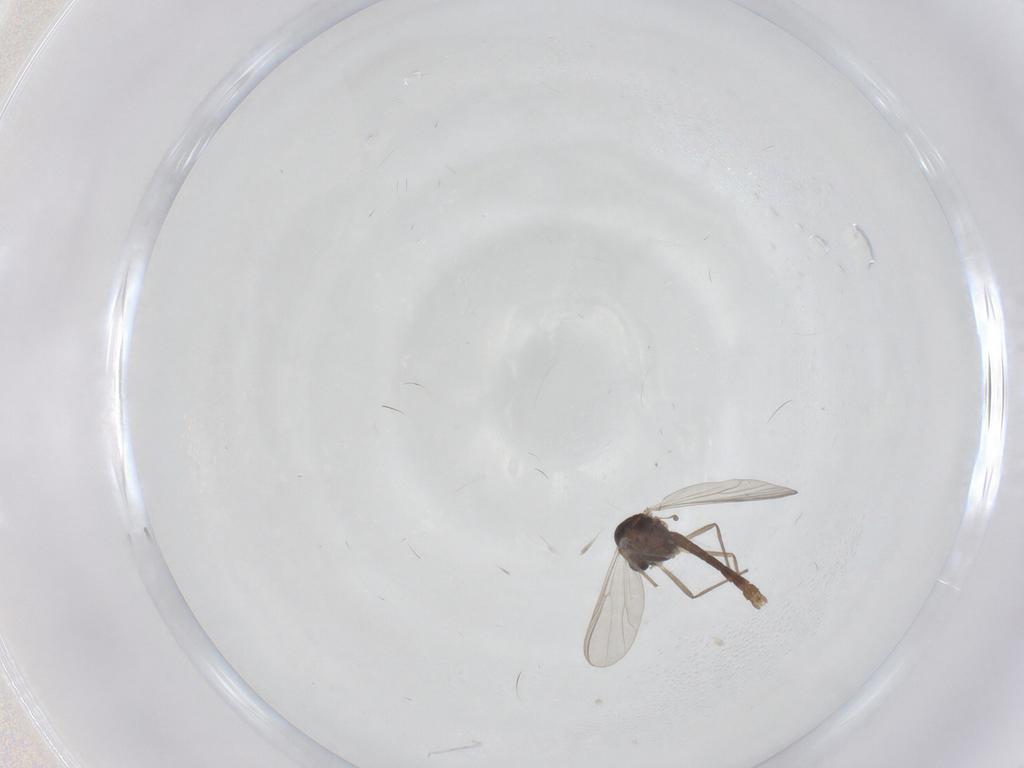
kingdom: Animalia
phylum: Arthropoda
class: Insecta
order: Diptera
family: Chironomidae
